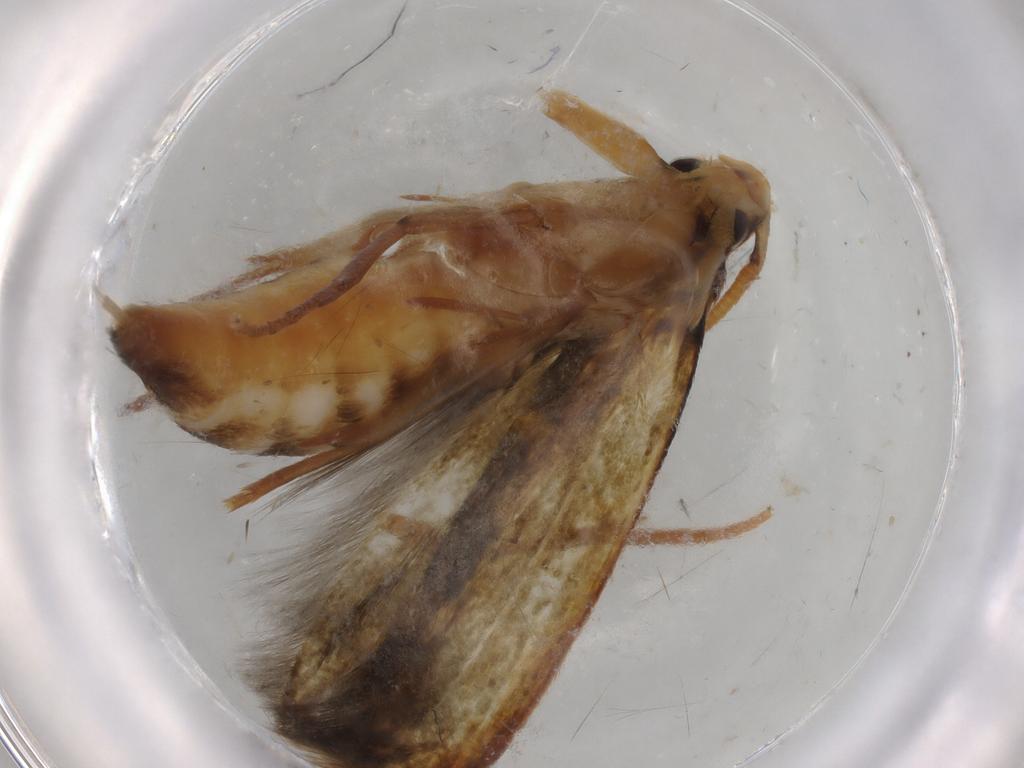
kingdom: Animalia
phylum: Arthropoda
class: Insecta
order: Lepidoptera
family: Tineidae
